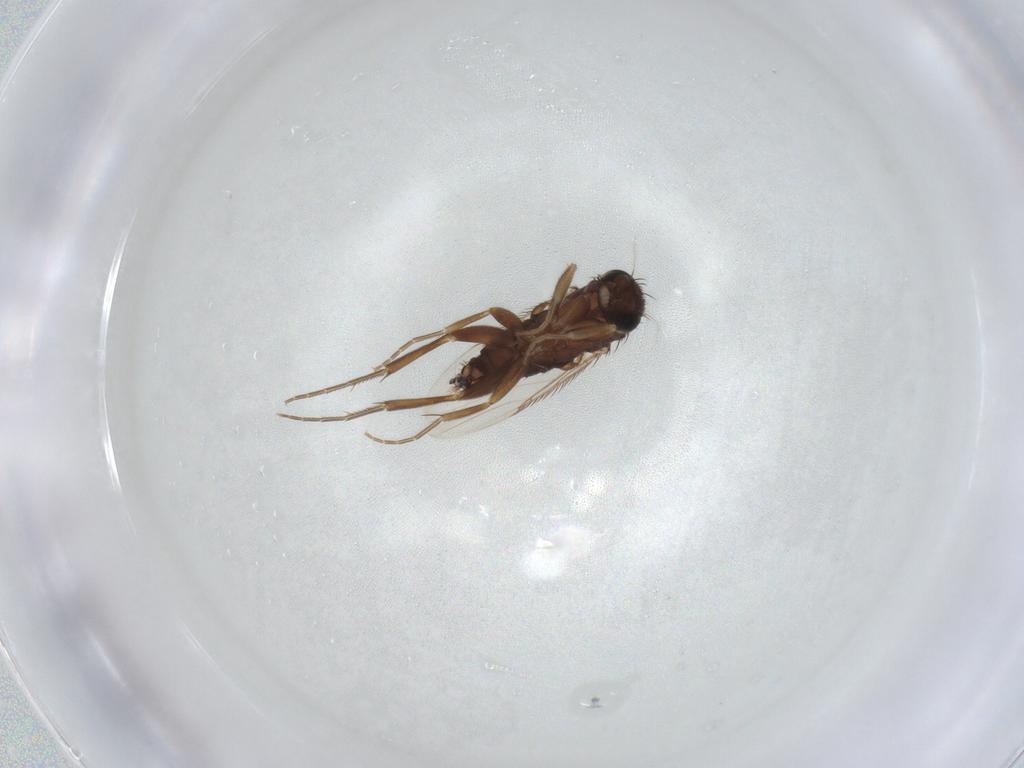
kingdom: Animalia
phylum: Arthropoda
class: Insecta
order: Diptera
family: Phoridae
